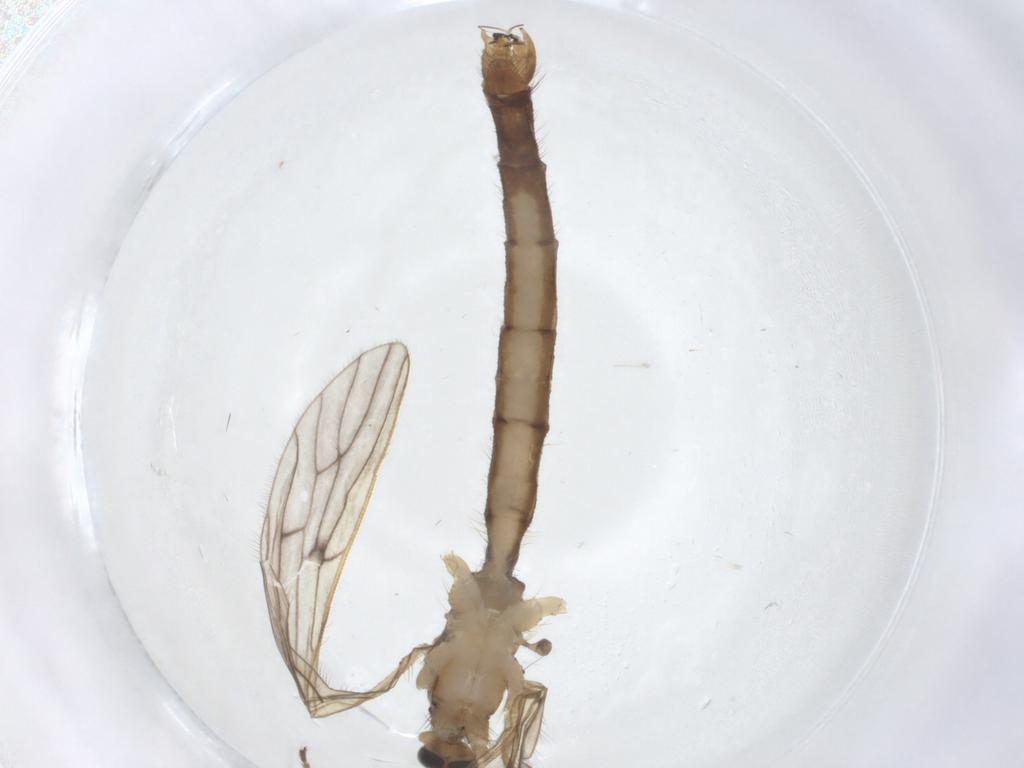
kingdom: Animalia
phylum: Arthropoda
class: Insecta
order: Diptera
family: Limoniidae
